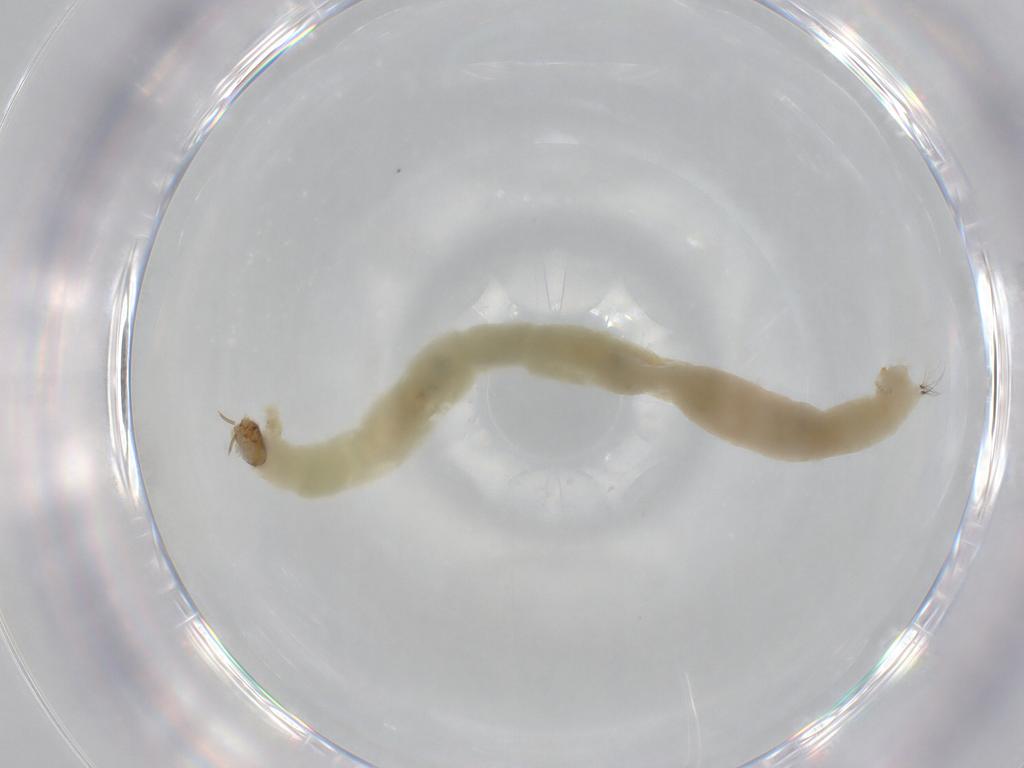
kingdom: Animalia
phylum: Arthropoda
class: Insecta
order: Diptera
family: Chironomidae
